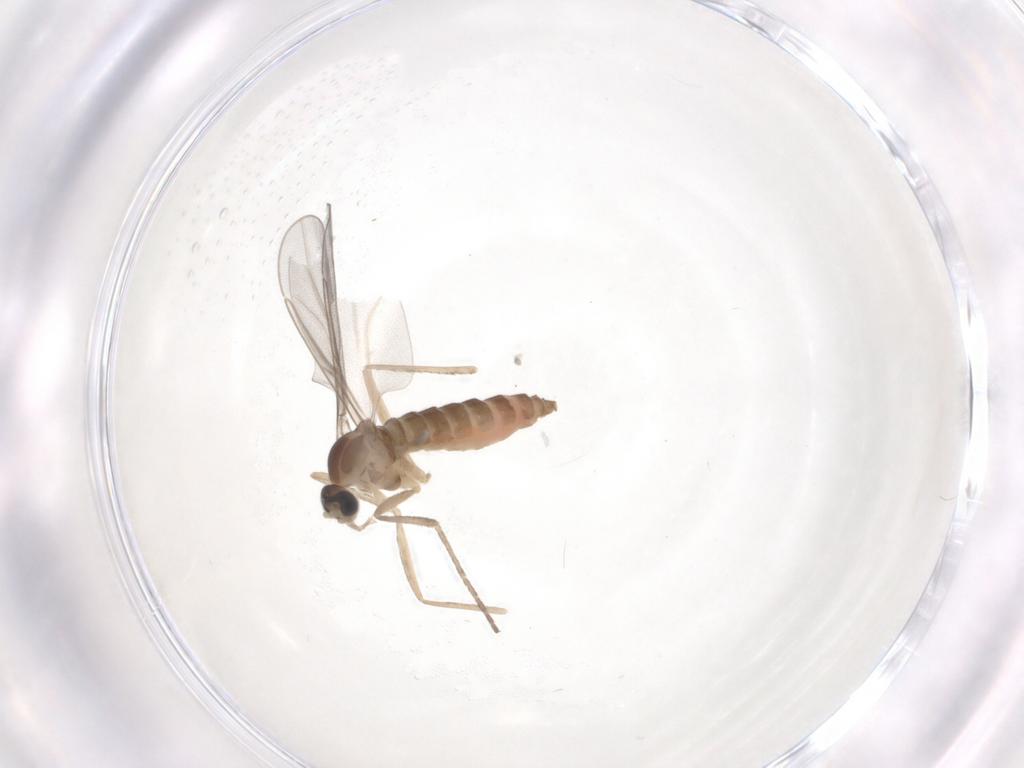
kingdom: Animalia
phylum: Arthropoda
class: Insecta
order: Diptera
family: Cecidomyiidae
